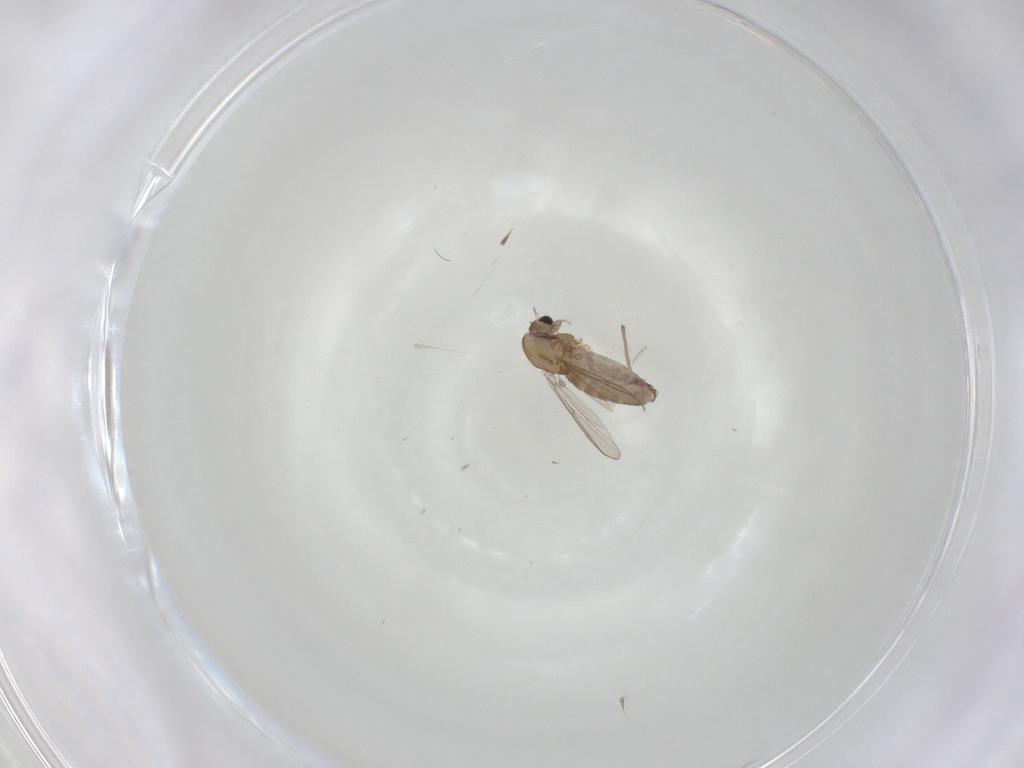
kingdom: Animalia
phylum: Arthropoda
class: Insecta
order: Diptera
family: Chironomidae
